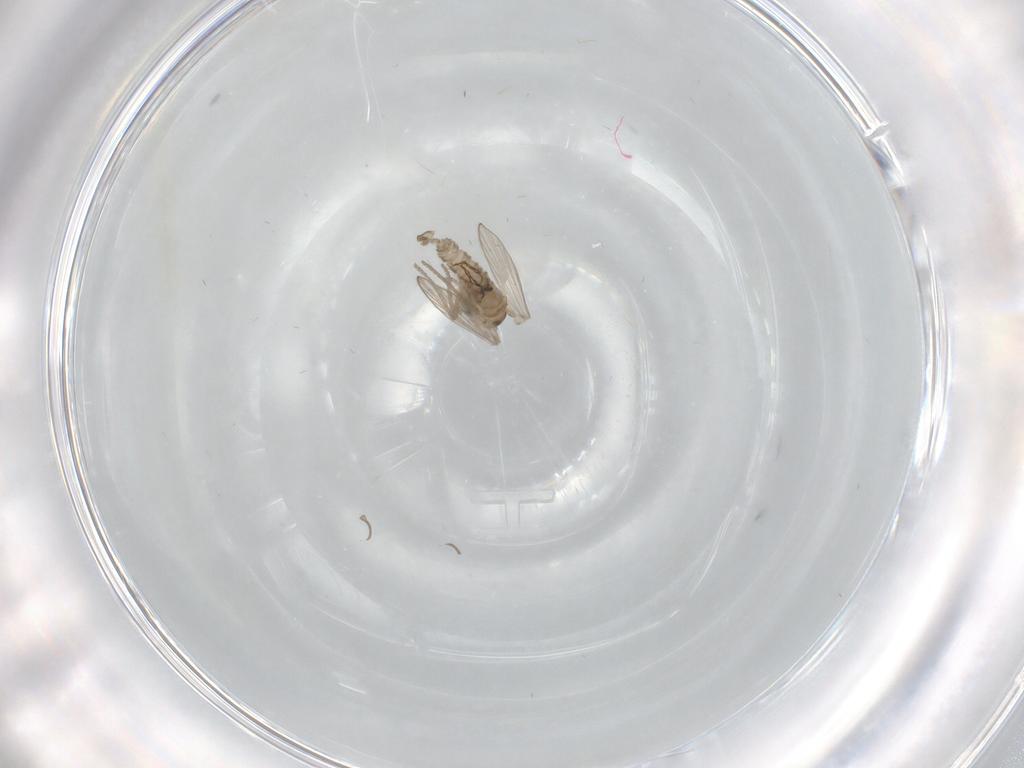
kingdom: Animalia
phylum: Arthropoda
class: Insecta
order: Diptera
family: Psychodidae
